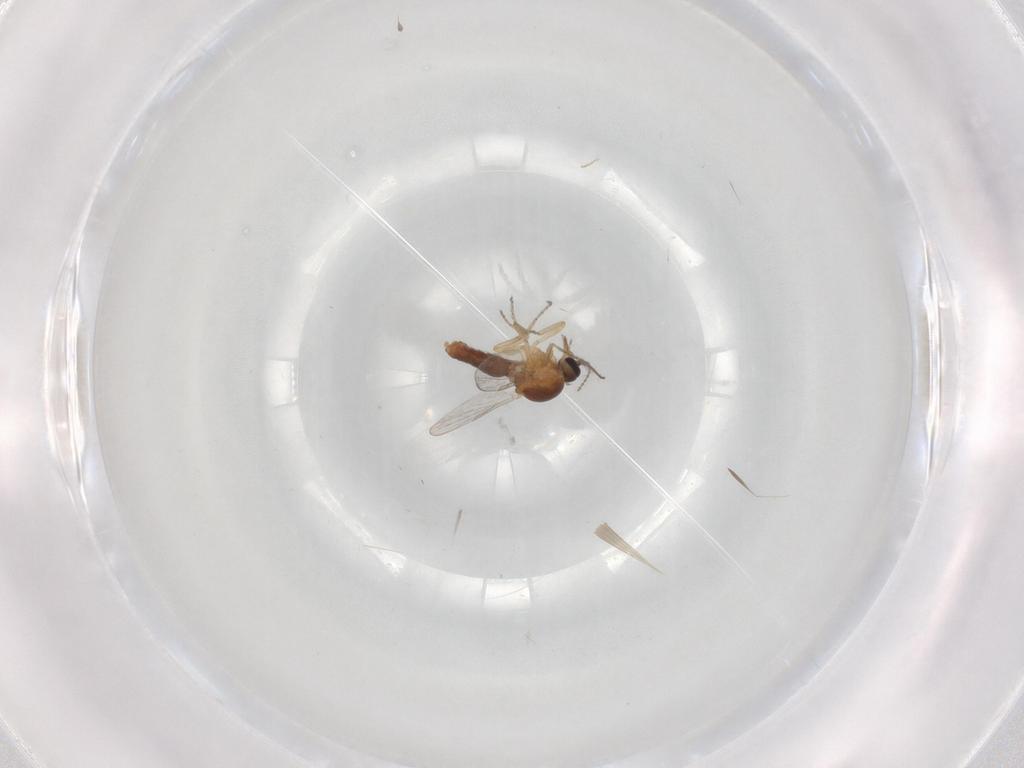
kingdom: Animalia
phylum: Arthropoda
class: Insecta
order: Diptera
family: Ceratopogonidae
